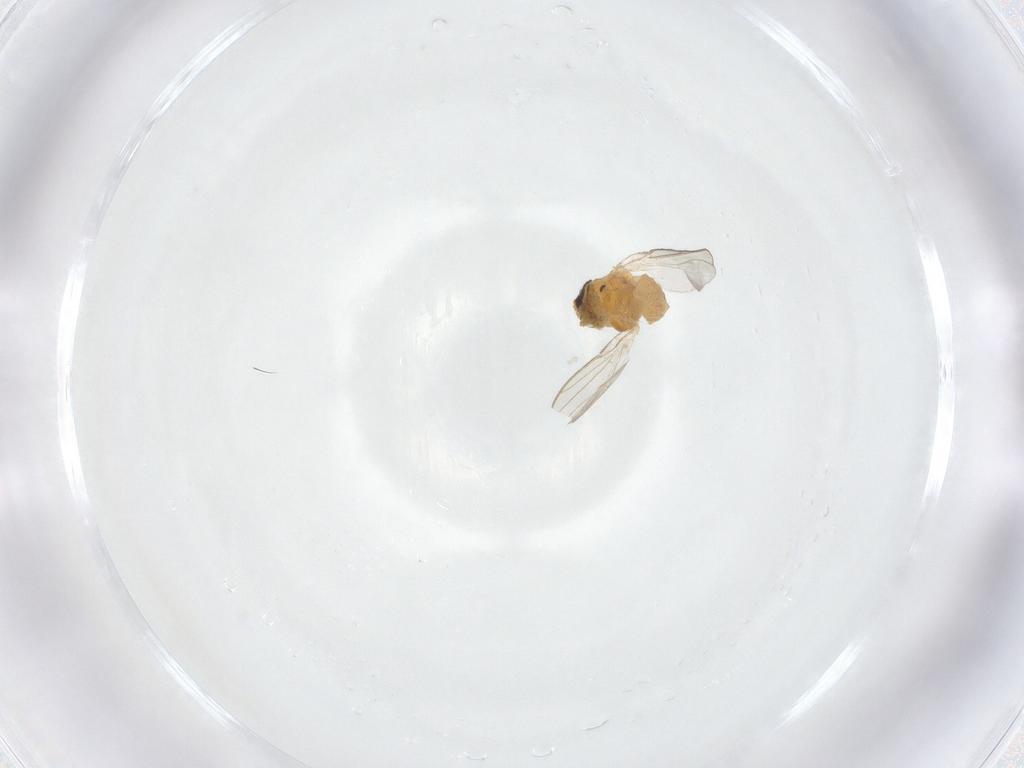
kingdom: Animalia
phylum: Arthropoda
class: Insecta
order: Diptera
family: Chloropidae
